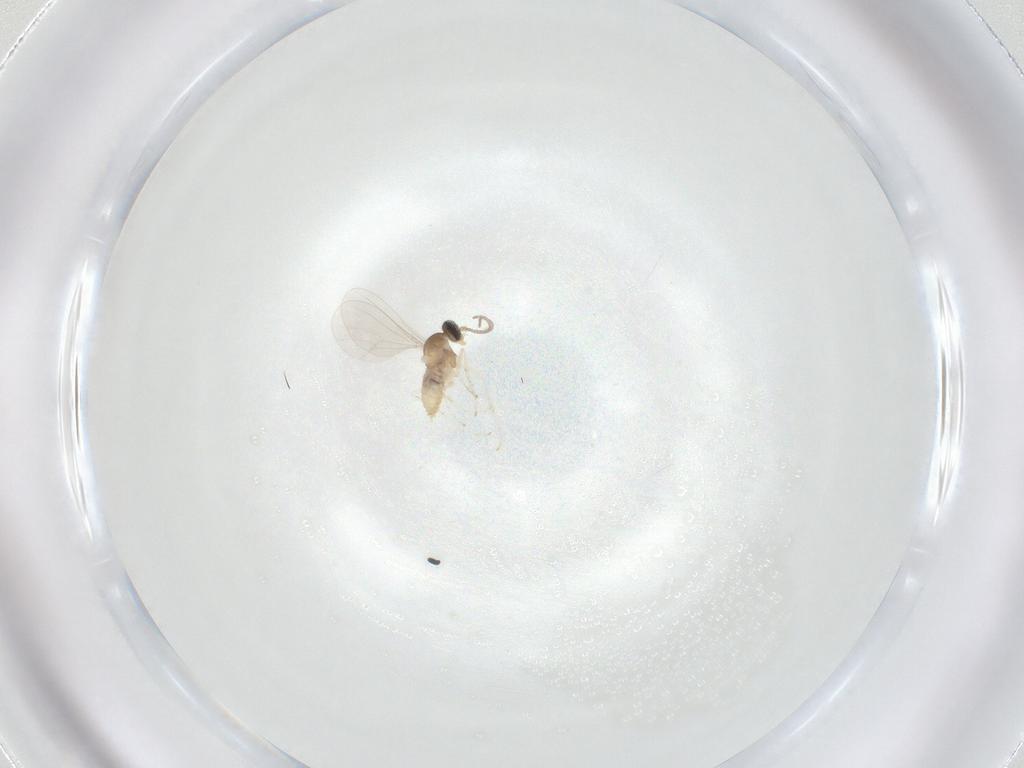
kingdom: Animalia
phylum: Arthropoda
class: Insecta
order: Diptera
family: Cecidomyiidae
